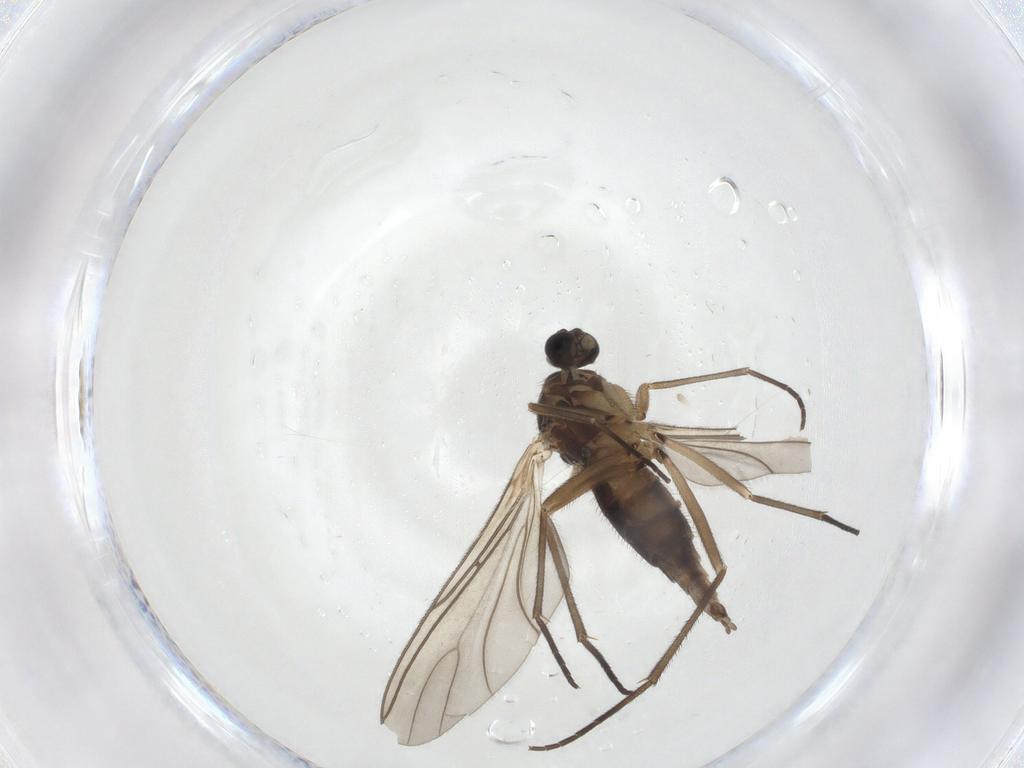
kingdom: Animalia
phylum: Arthropoda
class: Insecta
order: Diptera
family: Sciaridae
